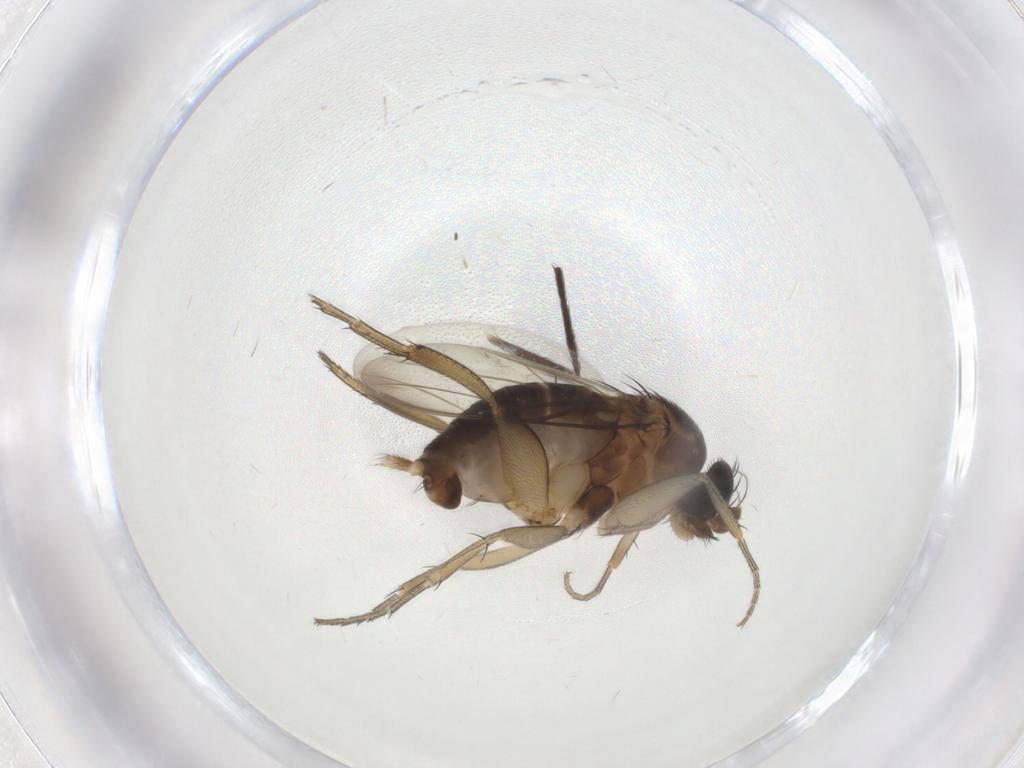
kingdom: Animalia
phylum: Arthropoda
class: Insecta
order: Diptera
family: Phoridae
